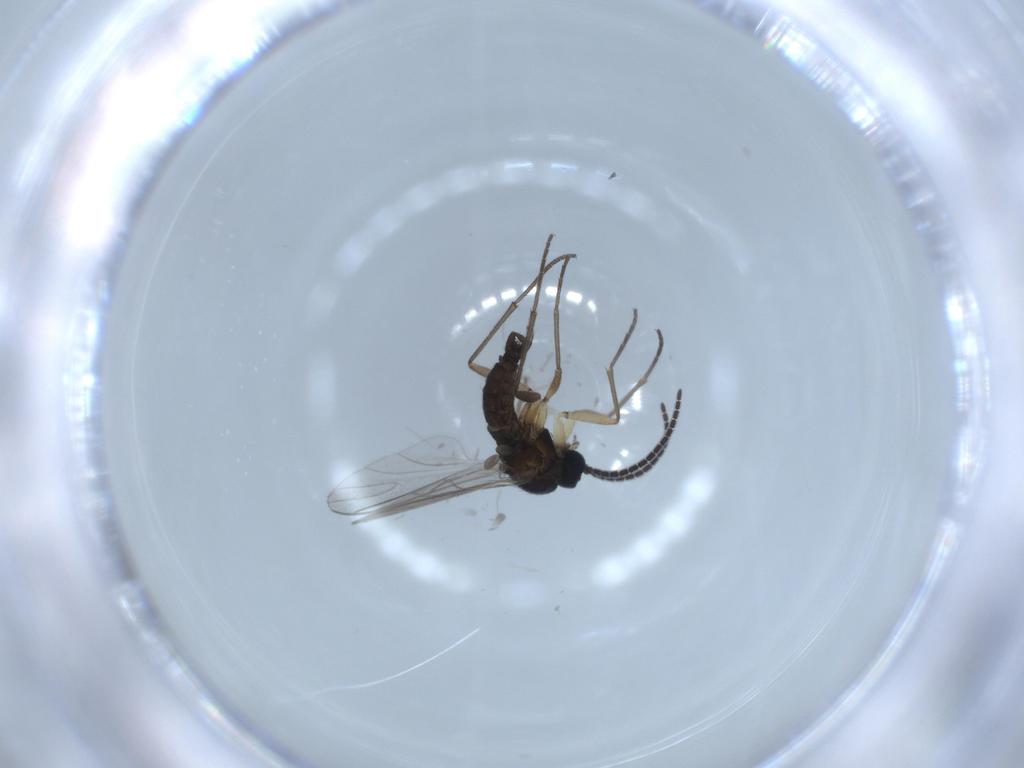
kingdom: Animalia
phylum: Arthropoda
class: Insecta
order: Diptera
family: Sciaridae
